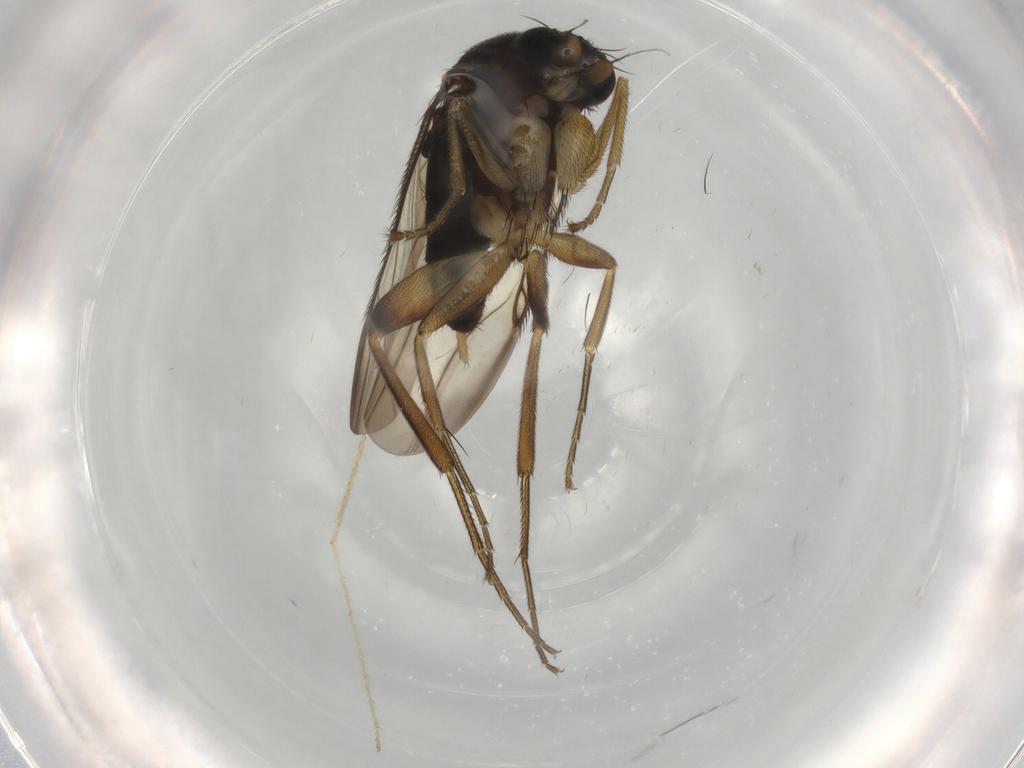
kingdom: Animalia
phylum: Arthropoda
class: Insecta
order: Diptera
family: Phoridae
